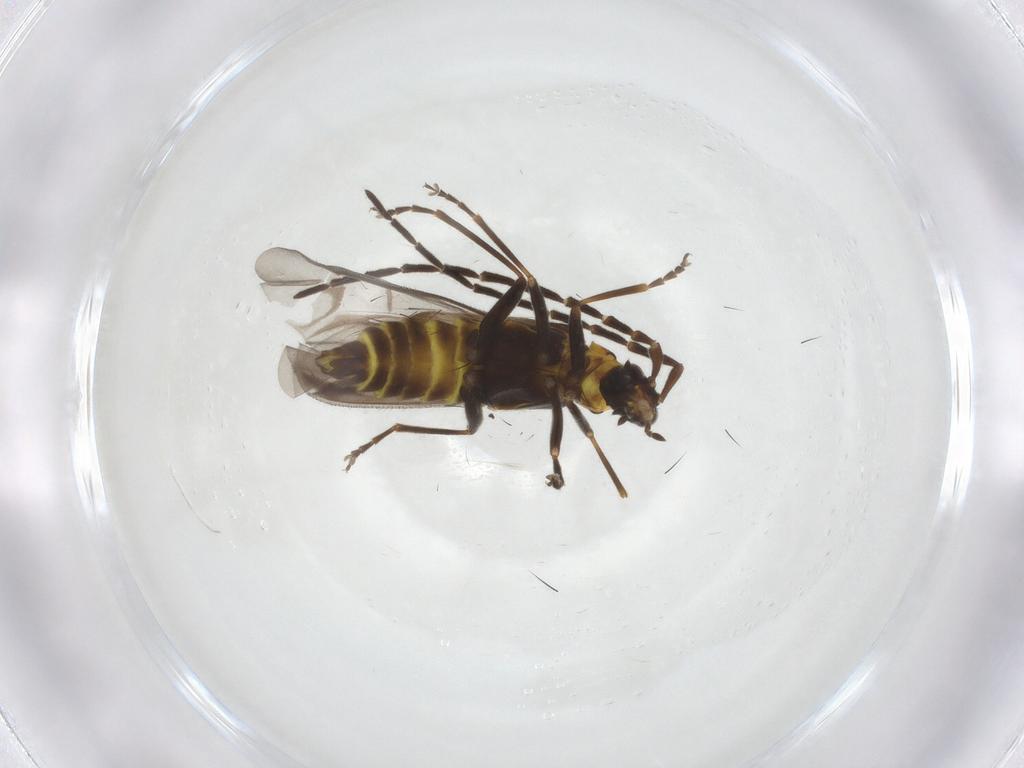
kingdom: Animalia
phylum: Arthropoda
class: Insecta
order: Coleoptera
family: Cantharidae
